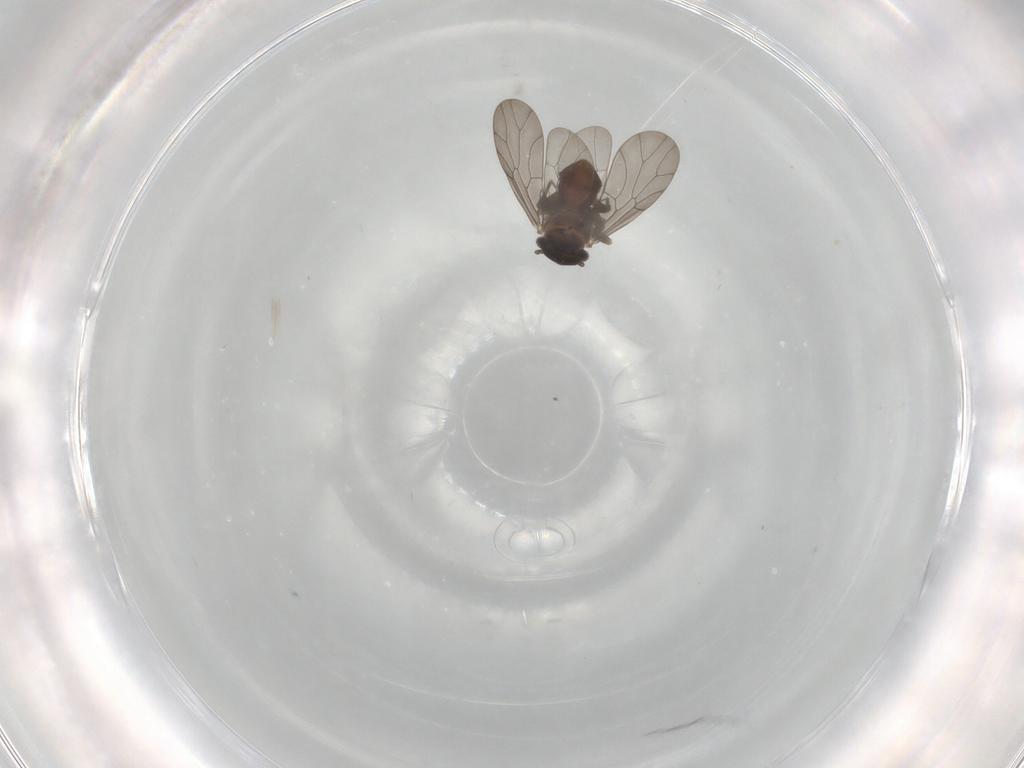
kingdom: Animalia
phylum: Arthropoda
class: Insecta
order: Psocodea
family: Lepidopsocidae
